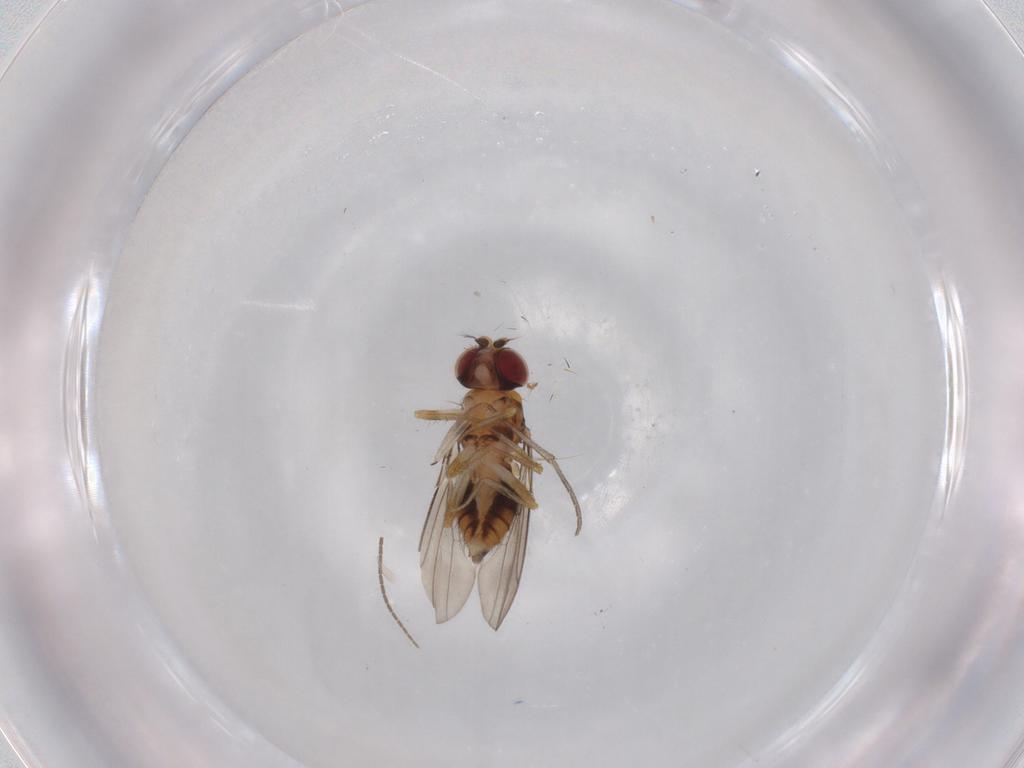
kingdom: Animalia
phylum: Arthropoda
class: Insecta
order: Diptera
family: Drosophilidae
